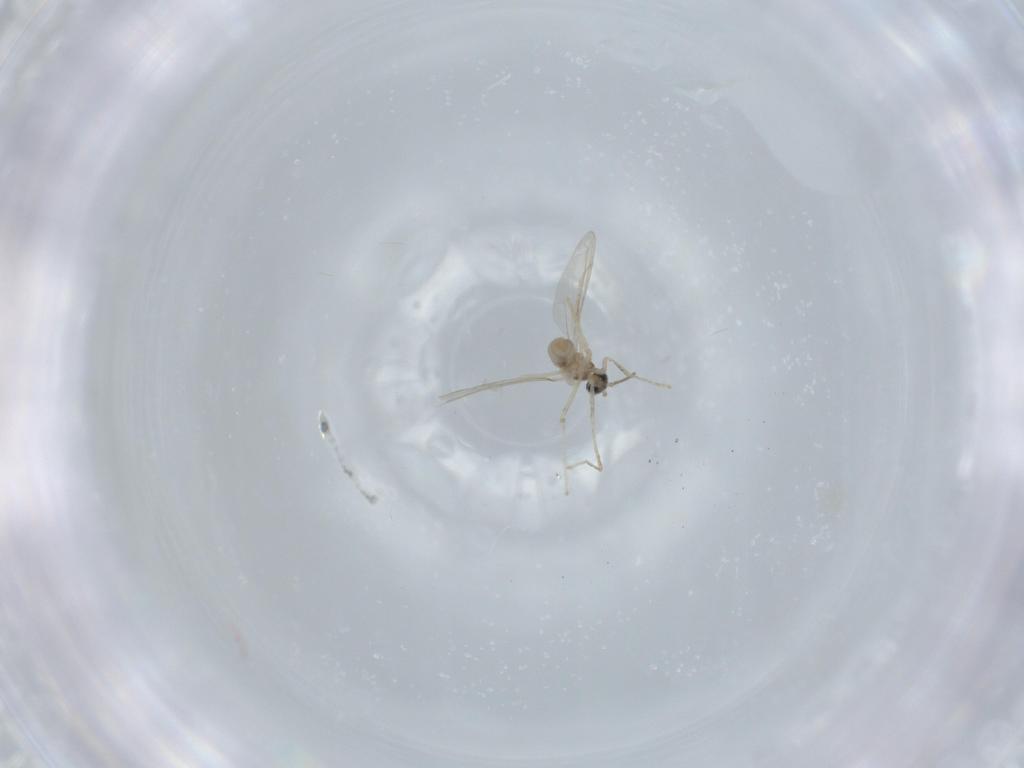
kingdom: Animalia
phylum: Arthropoda
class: Insecta
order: Diptera
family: Cecidomyiidae
